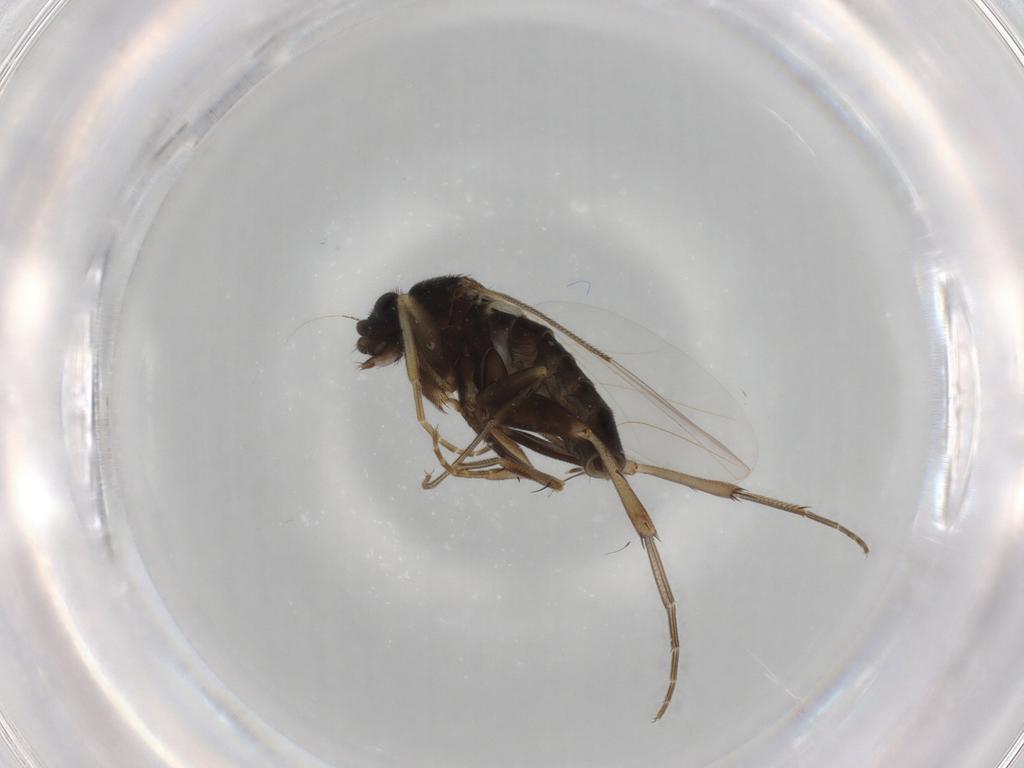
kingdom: Animalia
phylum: Arthropoda
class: Insecta
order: Diptera
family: Phoridae
